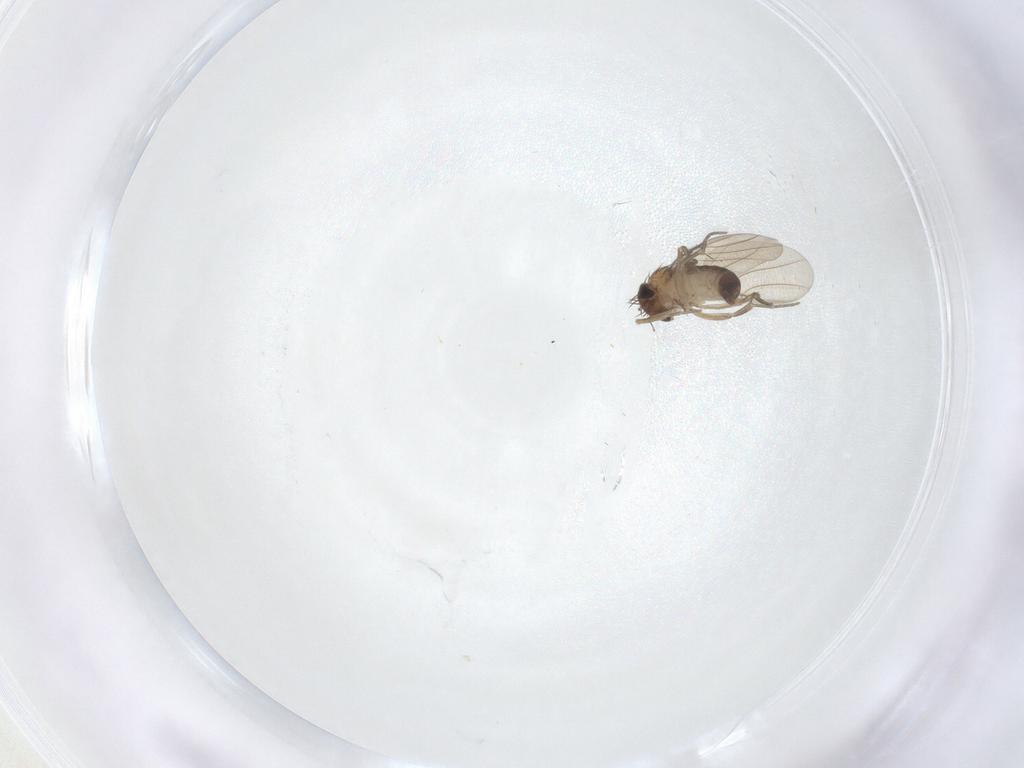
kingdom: Animalia
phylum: Arthropoda
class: Insecta
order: Diptera
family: Phoridae
